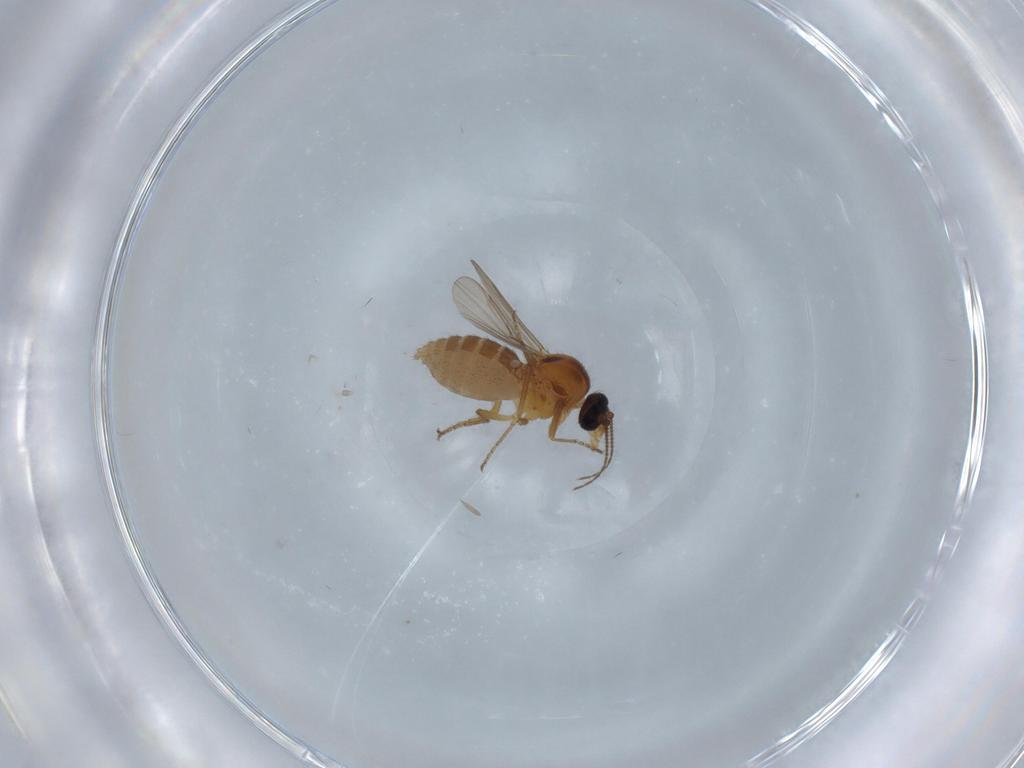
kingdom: Animalia
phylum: Arthropoda
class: Insecta
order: Diptera
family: Ceratopogonidae
